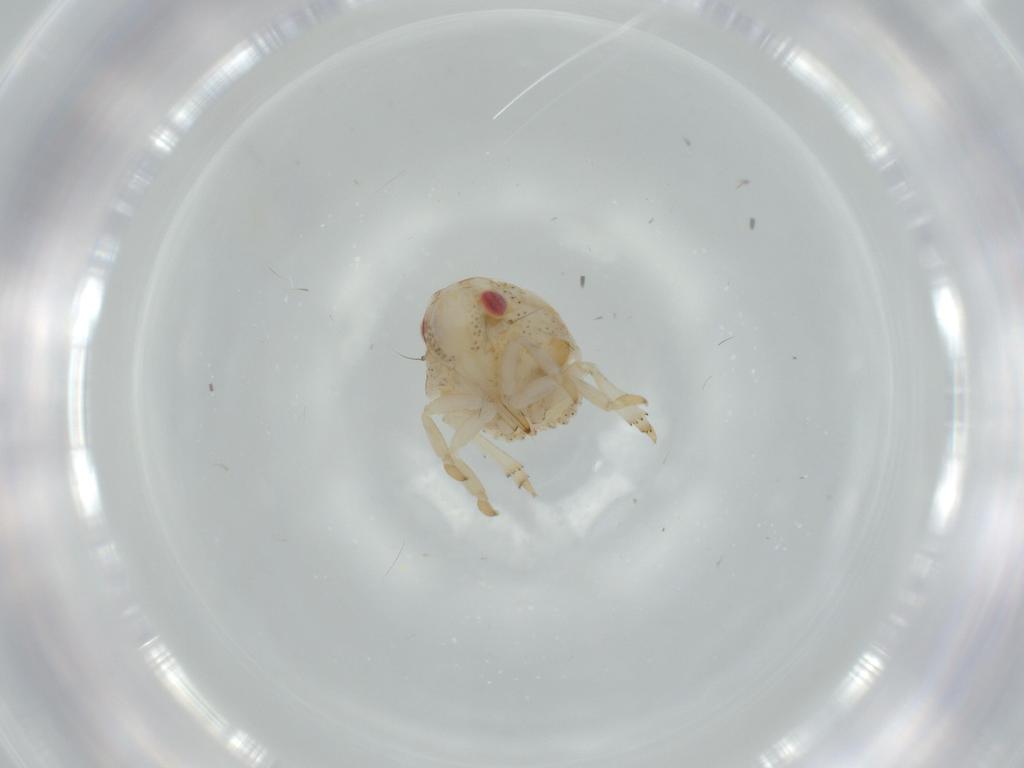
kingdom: Animalia
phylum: Arthropoda
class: Insecta
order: Hemiptera
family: Acanaloniidae
